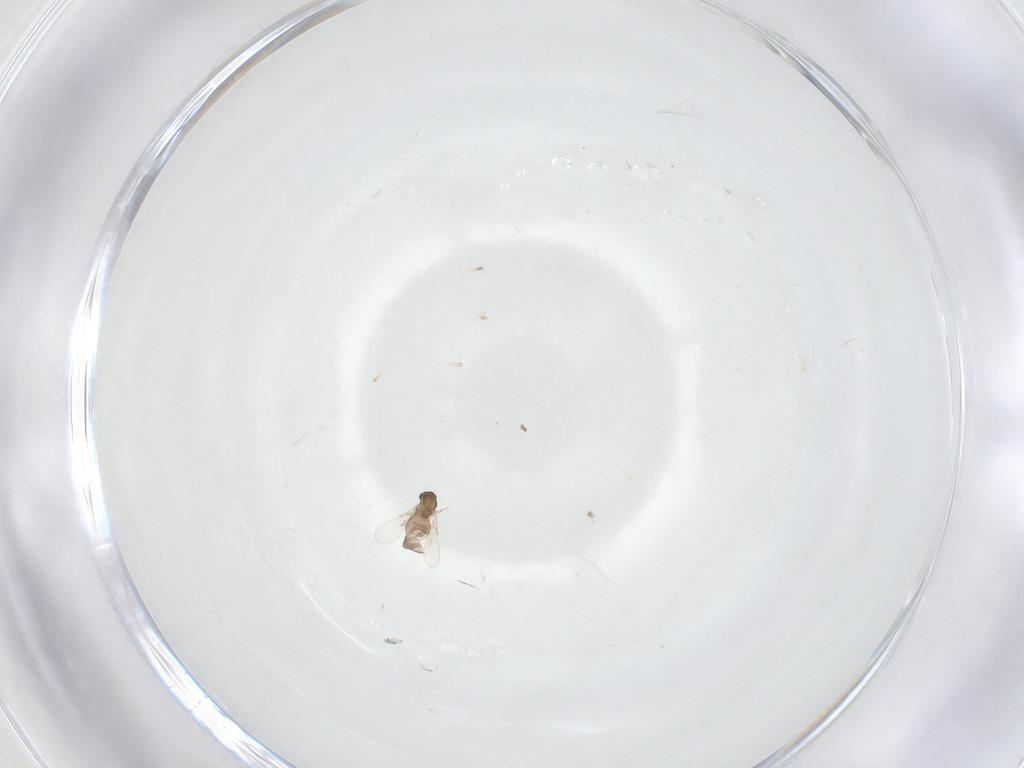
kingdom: Animalia
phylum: Arthropoda
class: Insecta
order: Diptera
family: Chironomidae
